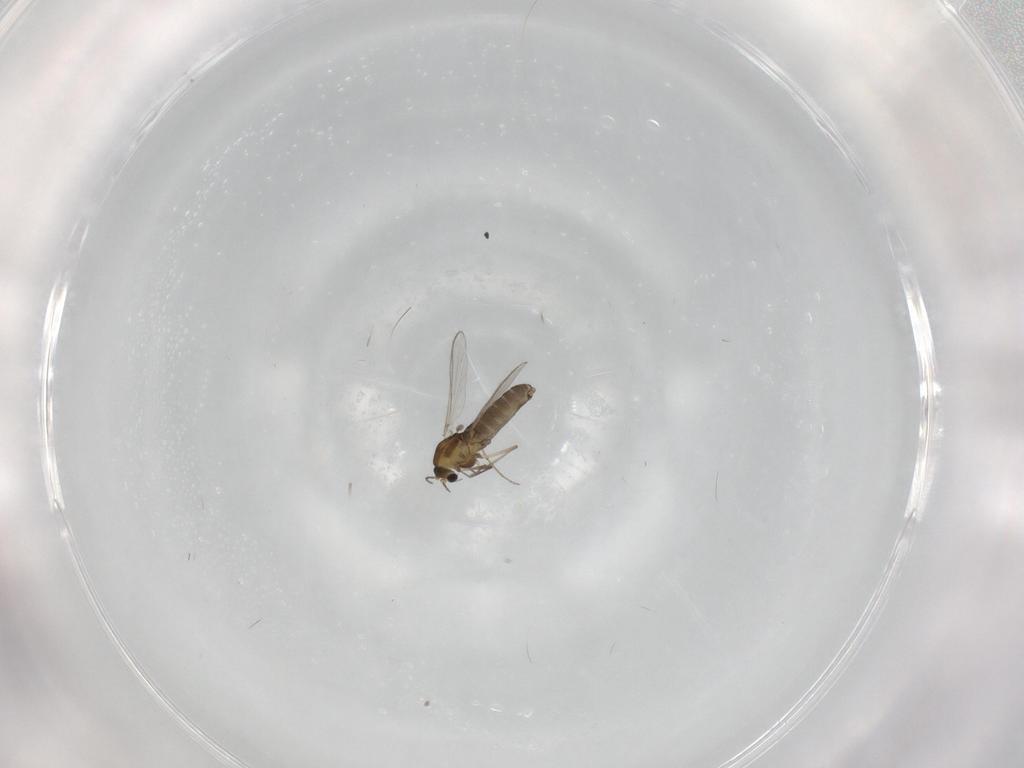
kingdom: Animalia
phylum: Arthropoda
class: Insecta
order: Diptera
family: Chironomidae
